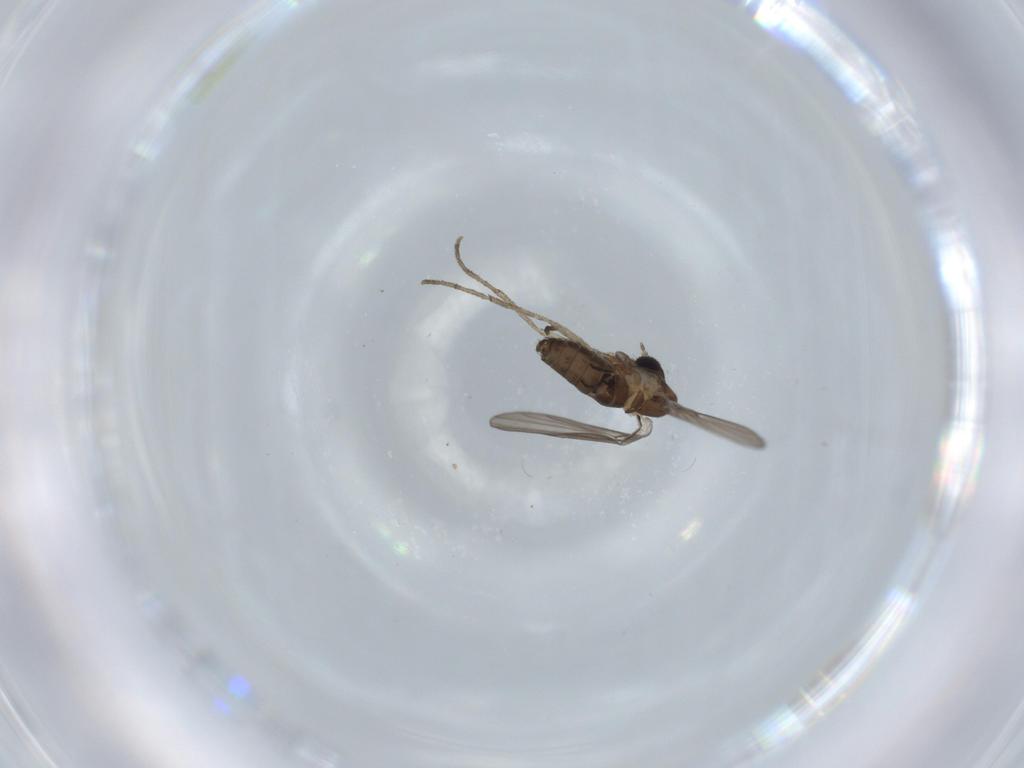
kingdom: Animalia
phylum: Arthropoda
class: Insecta
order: Diptera
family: Psychodidae
